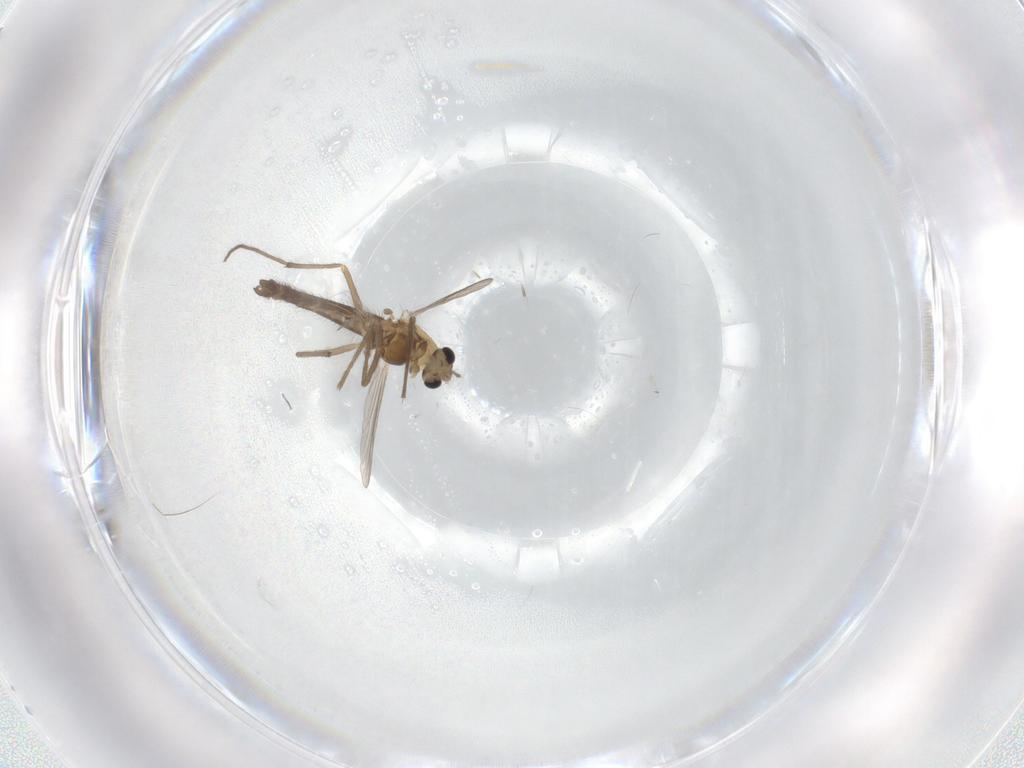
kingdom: Animalia
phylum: Arthropoda
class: Insecta
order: Diptera
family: Chironomidae
